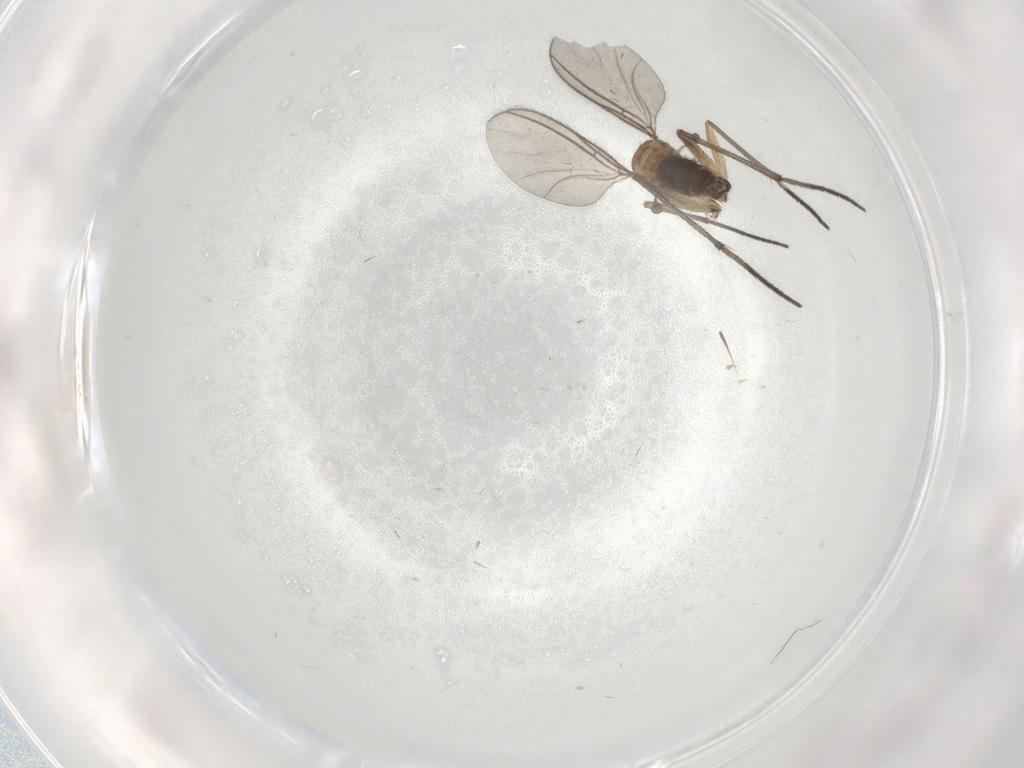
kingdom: Animalia
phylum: Arthropoda
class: Insecta
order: Diptera
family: Sciaridae
